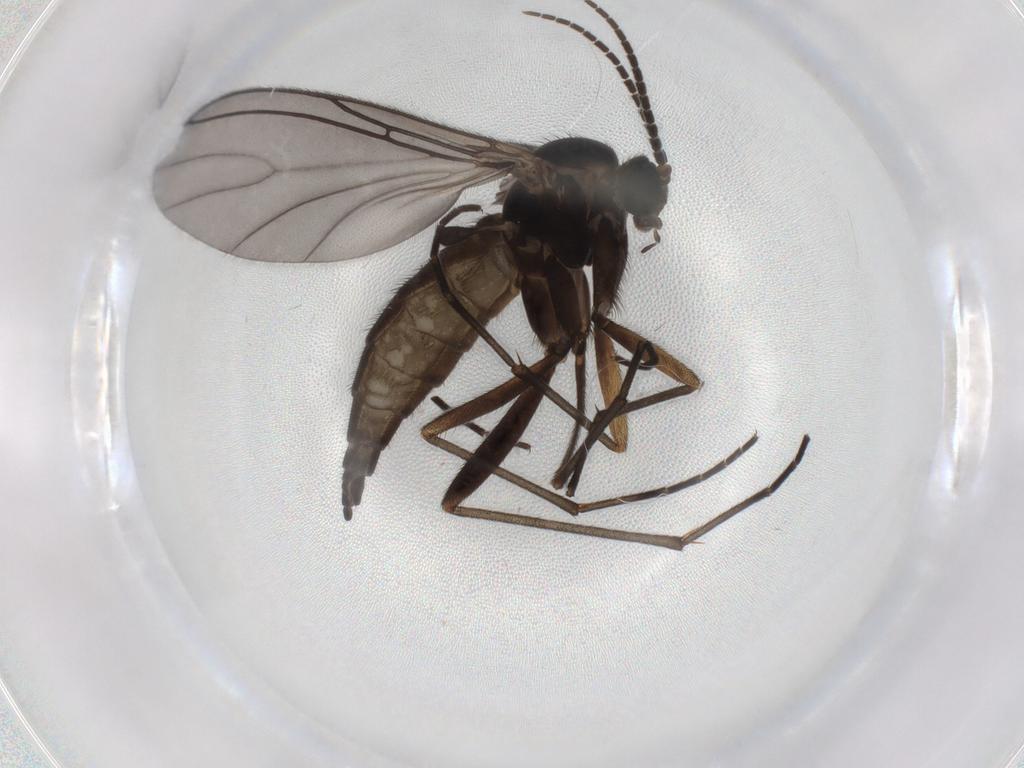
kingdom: Animalia
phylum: Arthropoda
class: Insecta
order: Diptera
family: Sciaridae
